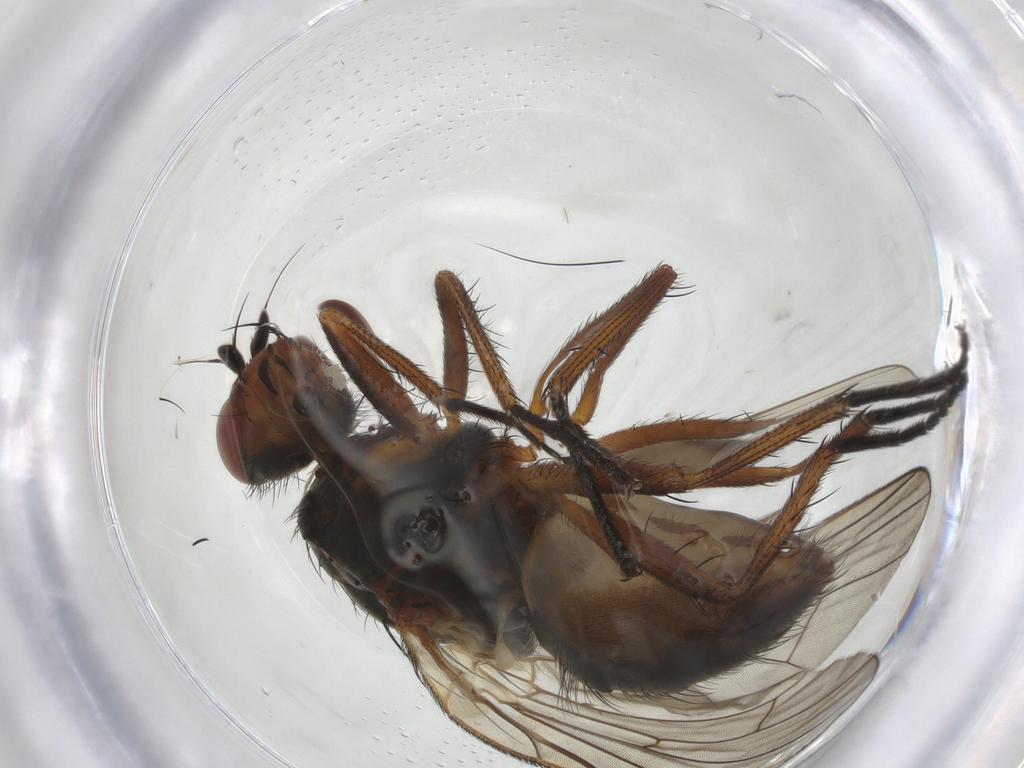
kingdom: Animalia
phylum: Arthropoda
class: Insecta
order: Diptera
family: Anthomyiidae
